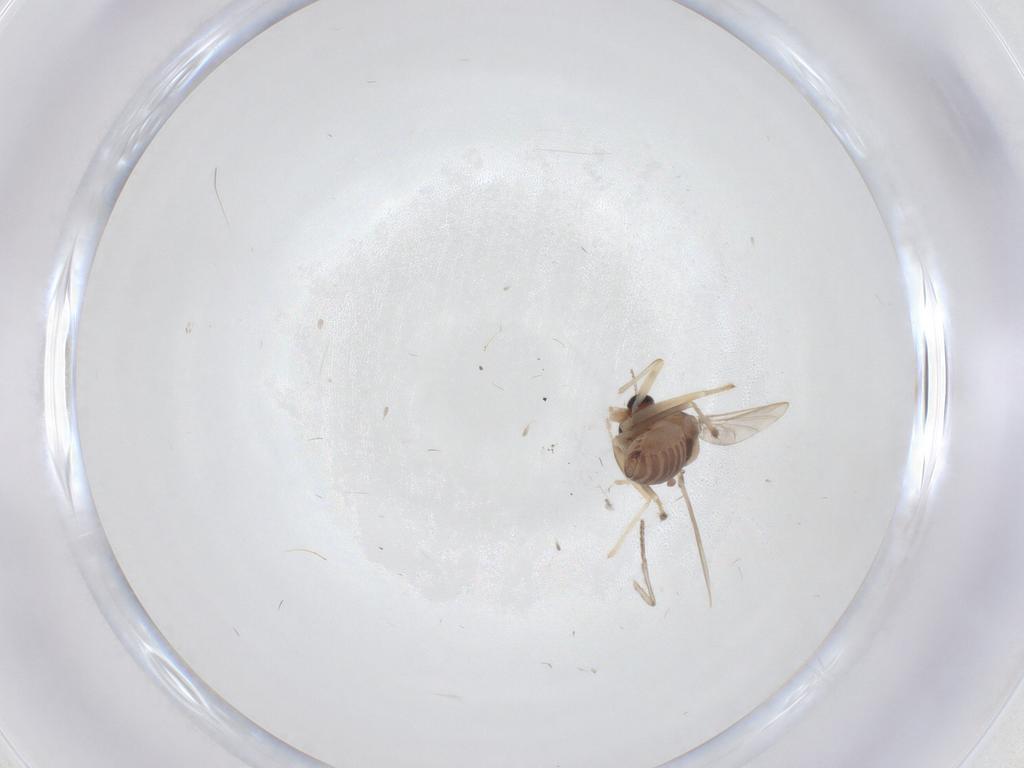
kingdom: Animalia
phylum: Arthropoda
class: Insecta
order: Diptera
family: Chironomidae
